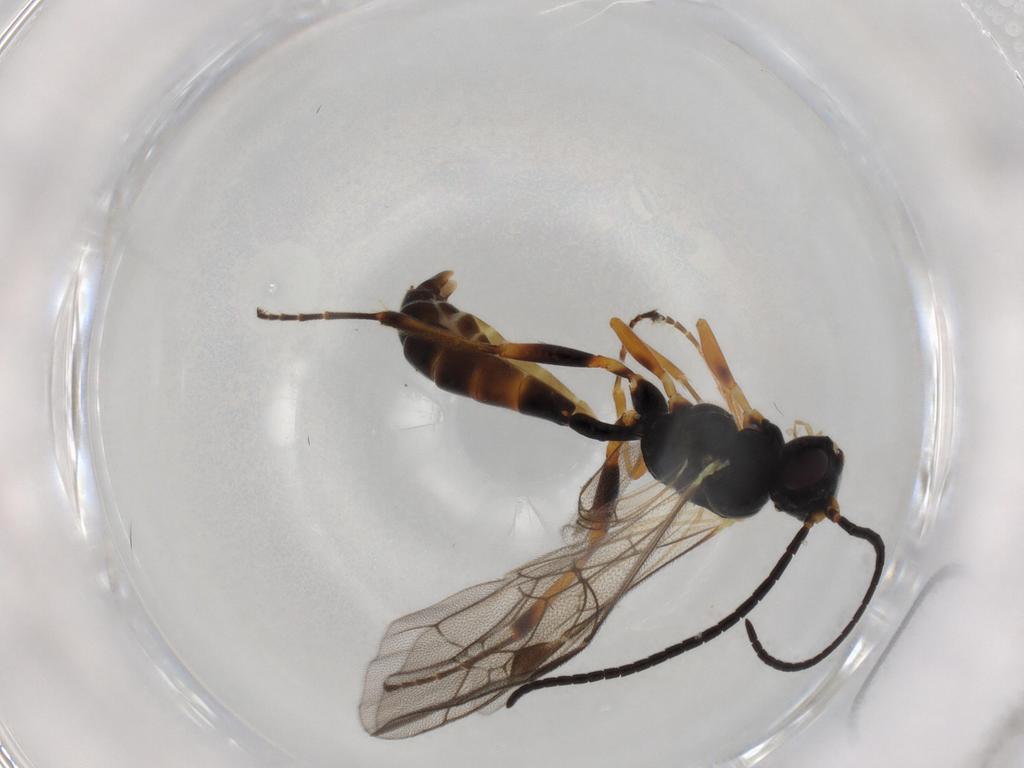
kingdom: Animalia
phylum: Arthropoda
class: Insecta
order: Hymenoptera
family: Ichneumonidae
